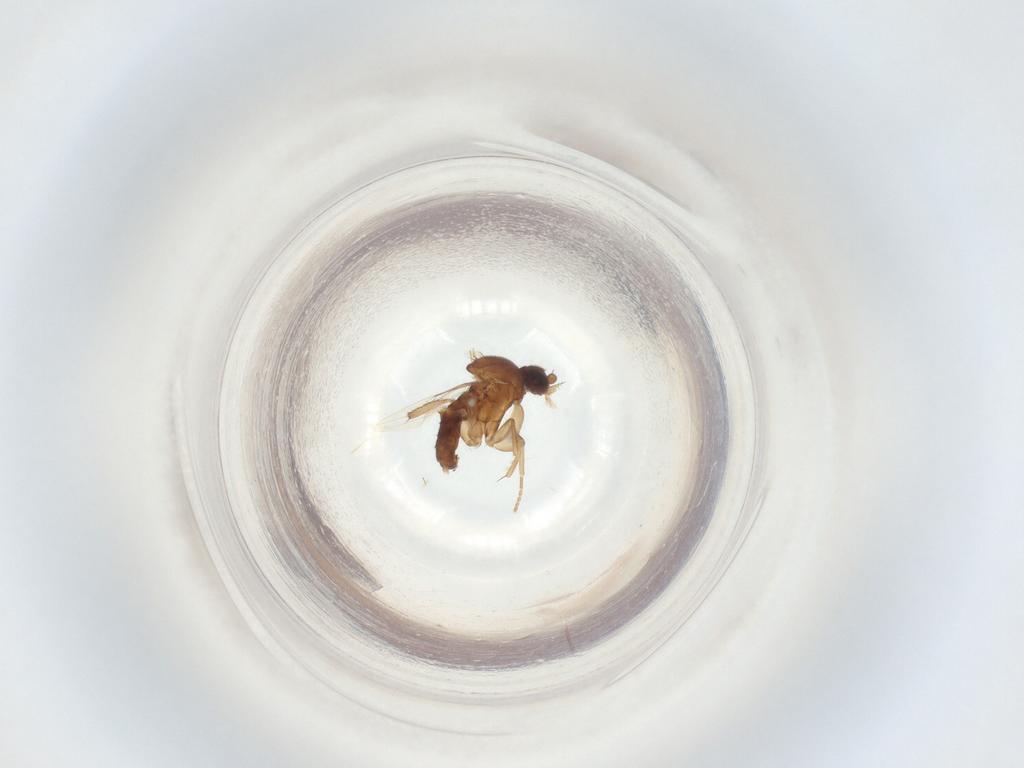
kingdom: Animalia
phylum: Arthropoda
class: Insecta
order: Diptera
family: Phoridae
